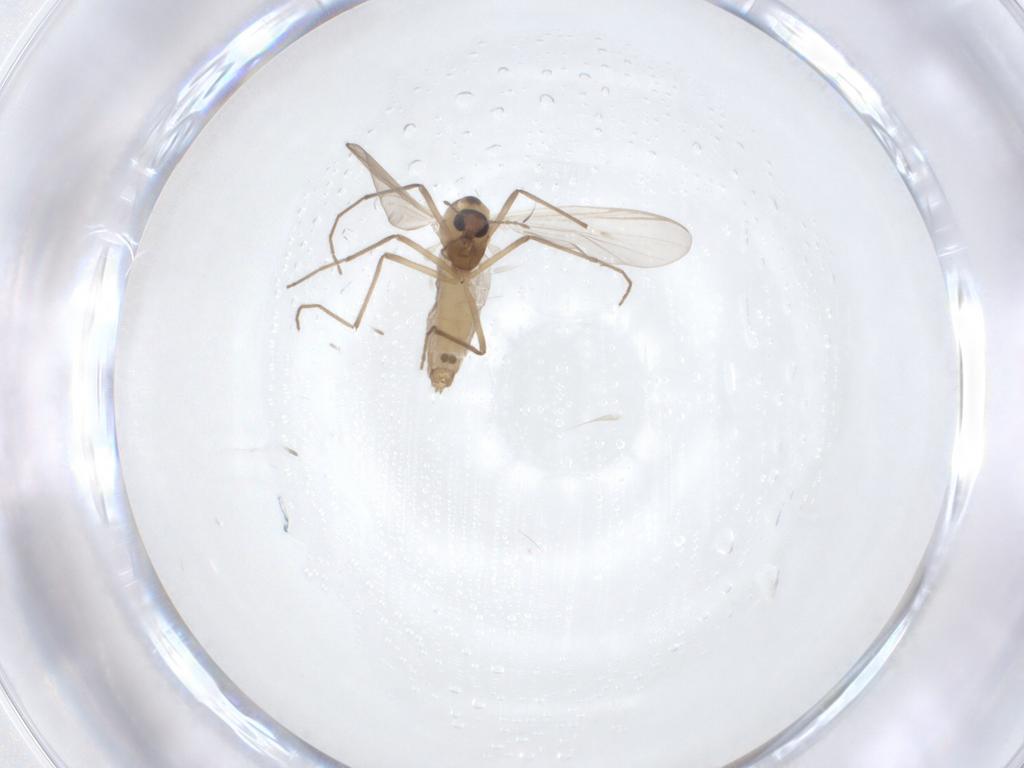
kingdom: Animalia
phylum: Arthropoda
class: Insecta
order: Diptera
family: Chironomidae
